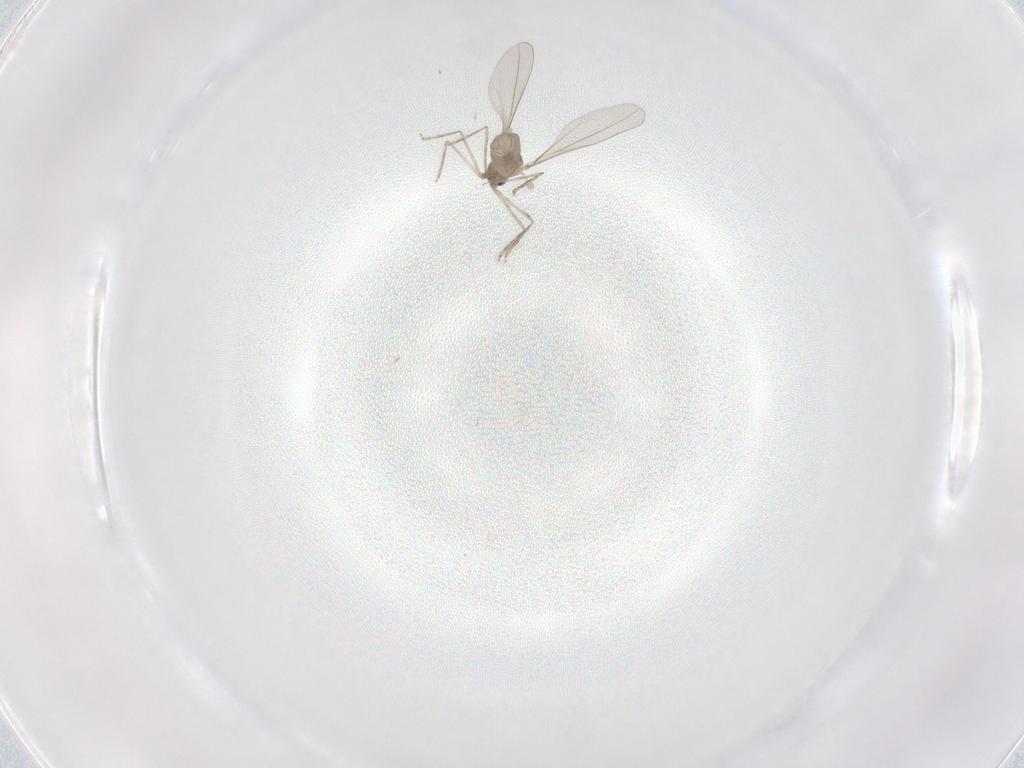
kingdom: Animalia
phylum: Arthropoda
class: Insecta
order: Diptera
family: Cecidomyiidae
